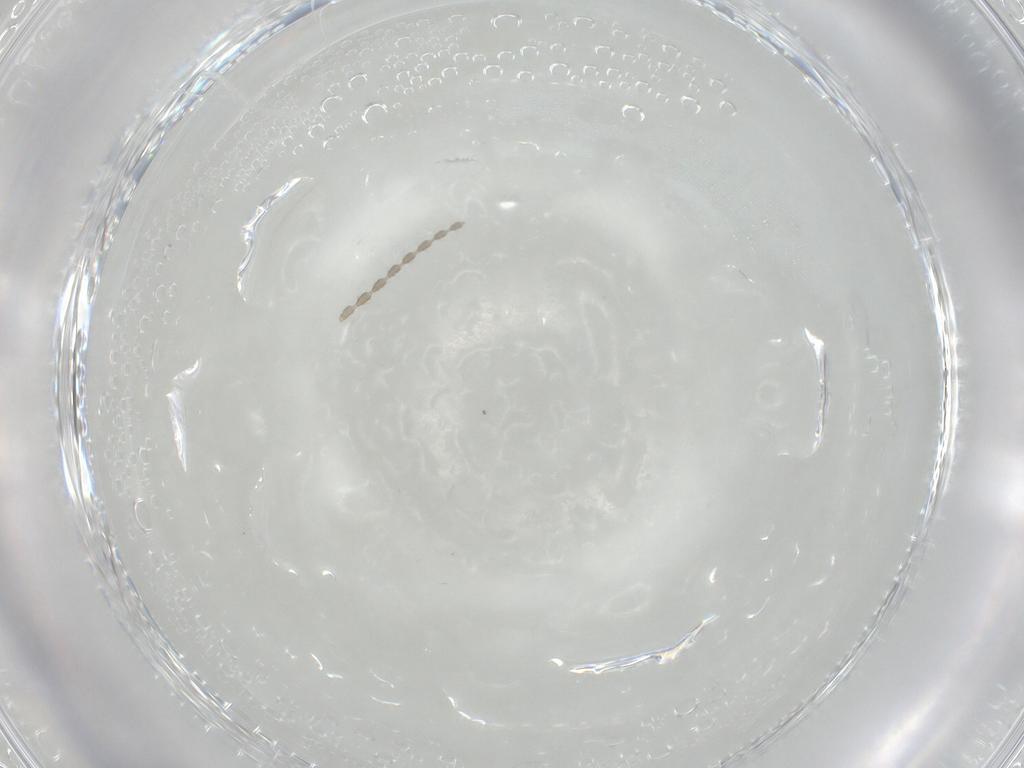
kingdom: Animalia
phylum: Arthropoda
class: Insecta
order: Diptera
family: Cecidomyiidae
